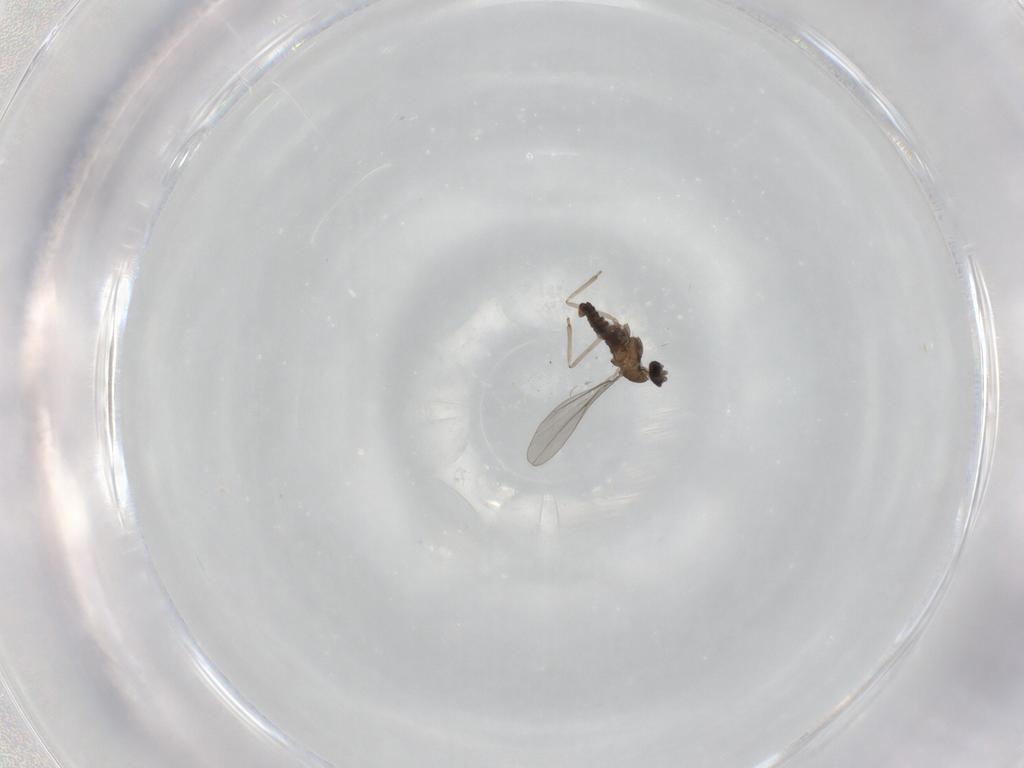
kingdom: Animalia
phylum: Arthropoda
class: Insecta
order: Diptera
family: Cecidomyiidae
